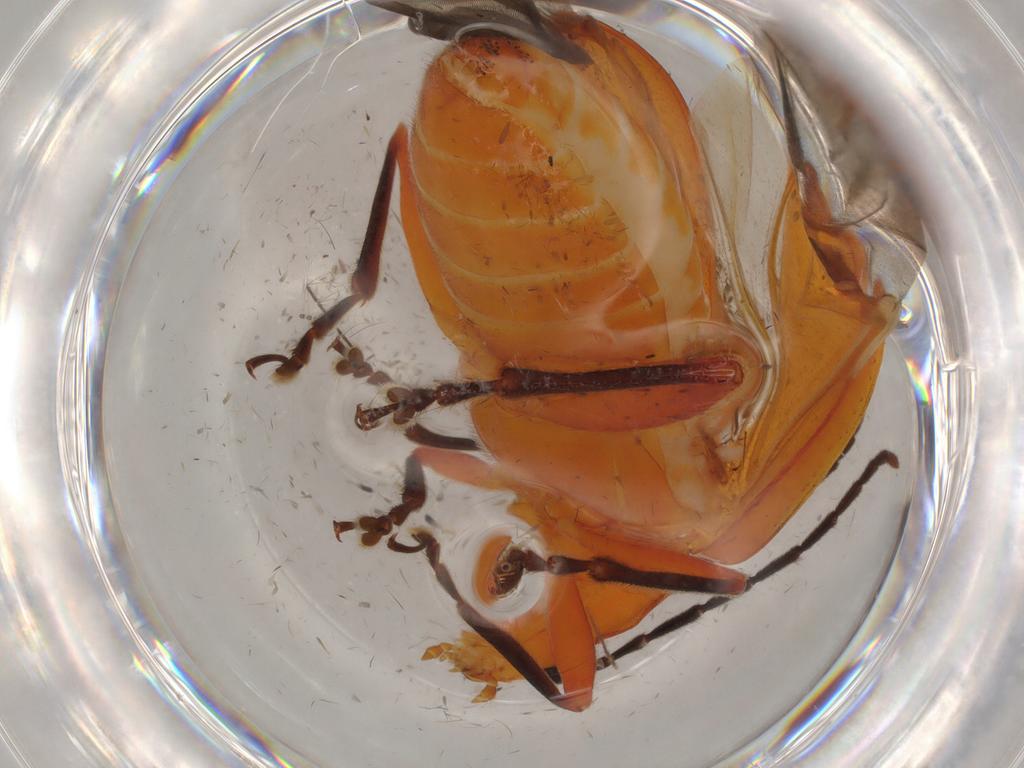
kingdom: Animalia
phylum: Arthropoda
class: Insecta
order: Coleoptera
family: Chrysomelidae
